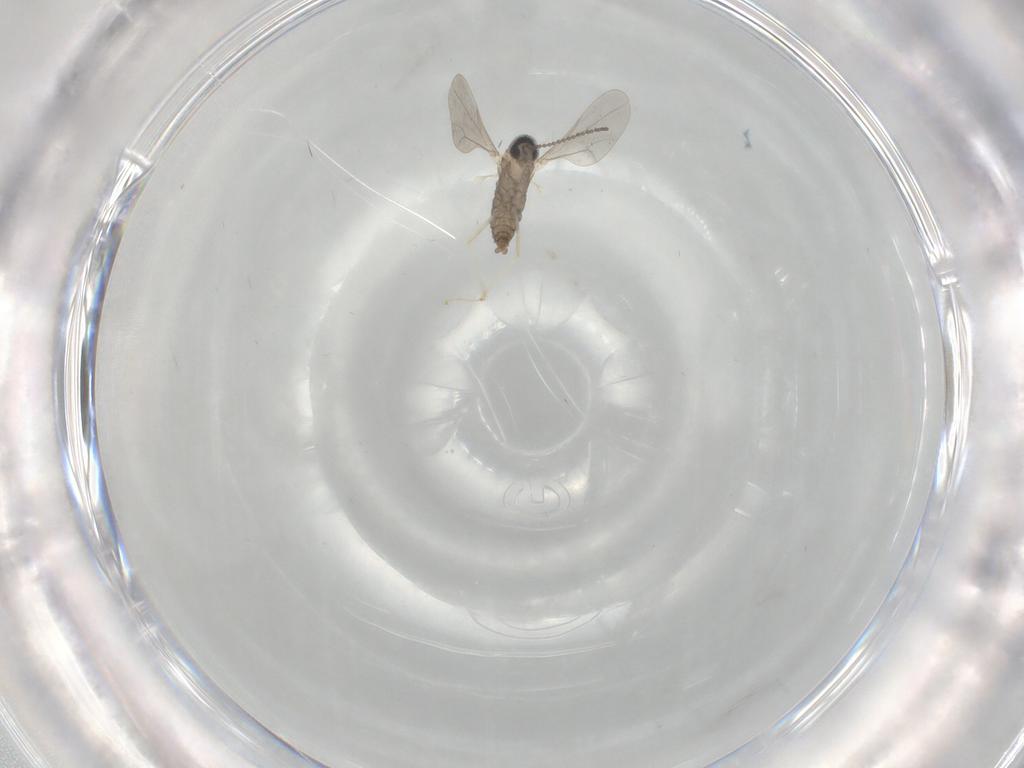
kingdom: Animalia
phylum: Arthropoda
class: Insecta
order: Diptera
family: Cecidomyiidae
